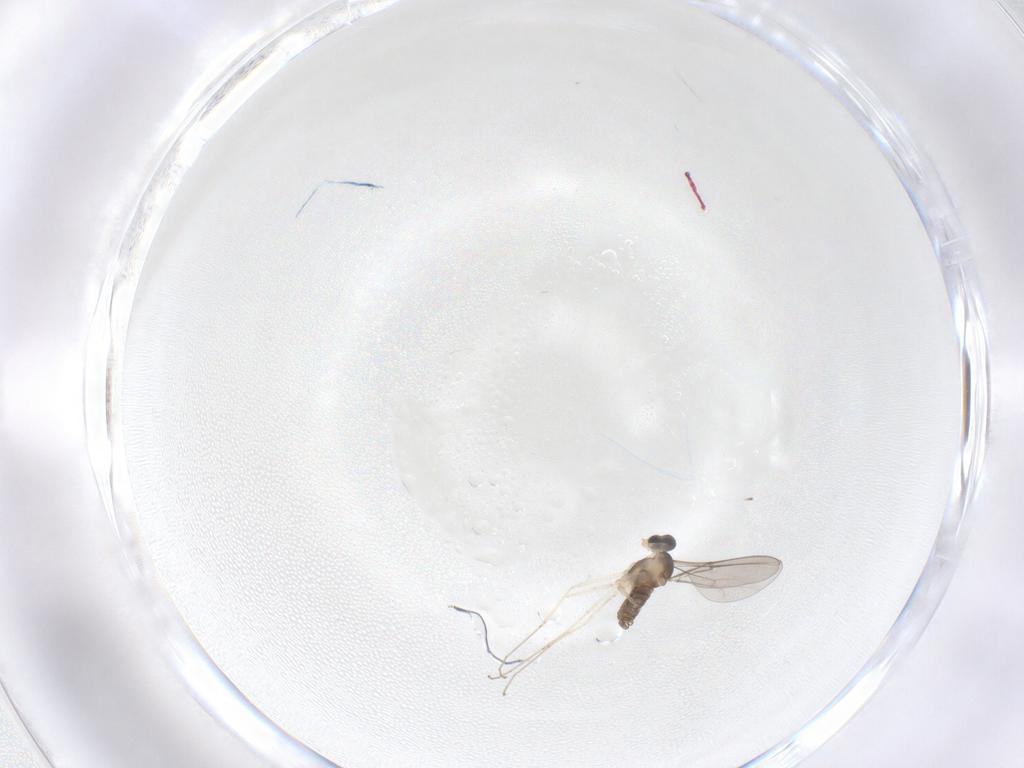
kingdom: Animalia
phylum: Arthropoda
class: Insecta
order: Diptera
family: Cecidomyiidae
